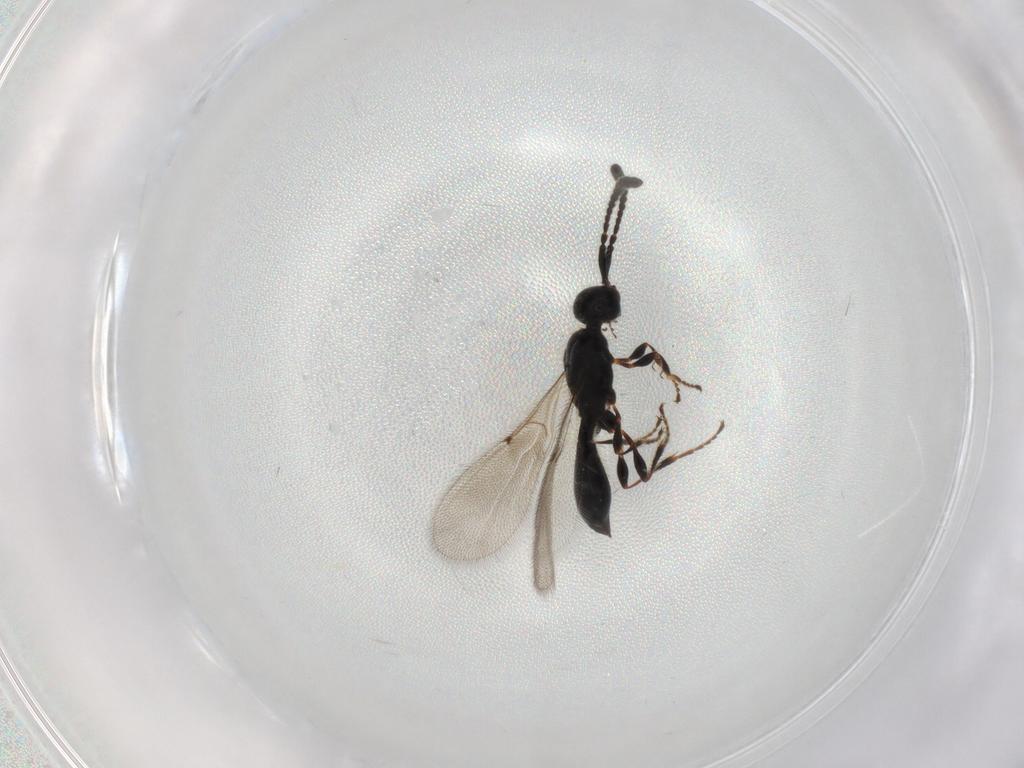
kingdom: Animalia
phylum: Arthropoda
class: Insecta
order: Hymenoptera
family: Diapriidae
